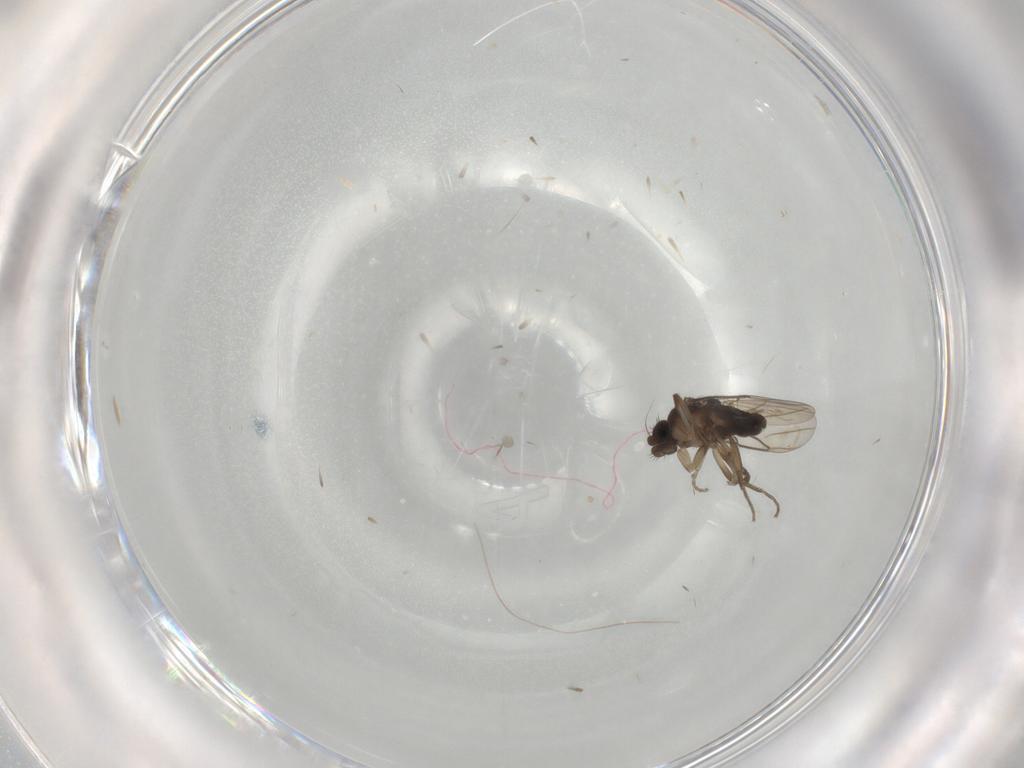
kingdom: Animalia
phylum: Arthropoda
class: Insecta
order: Diptera
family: Phoridae
